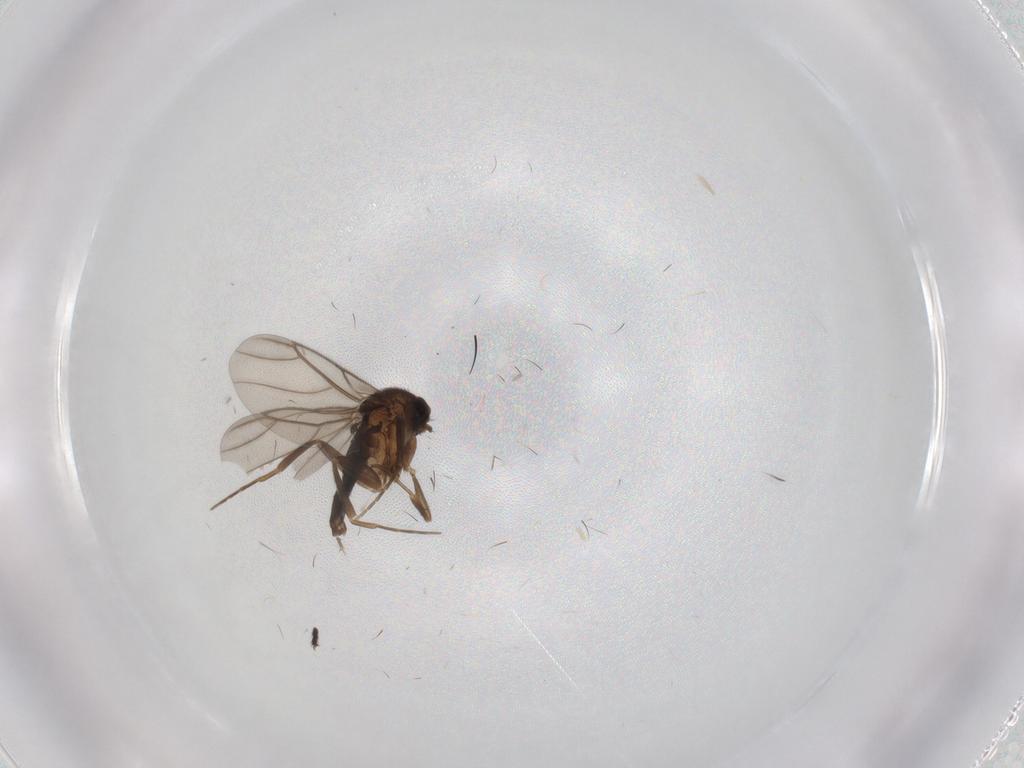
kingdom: Animalia
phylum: Arthropoda
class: Insecta
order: Diptera
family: Dolichopodidae
